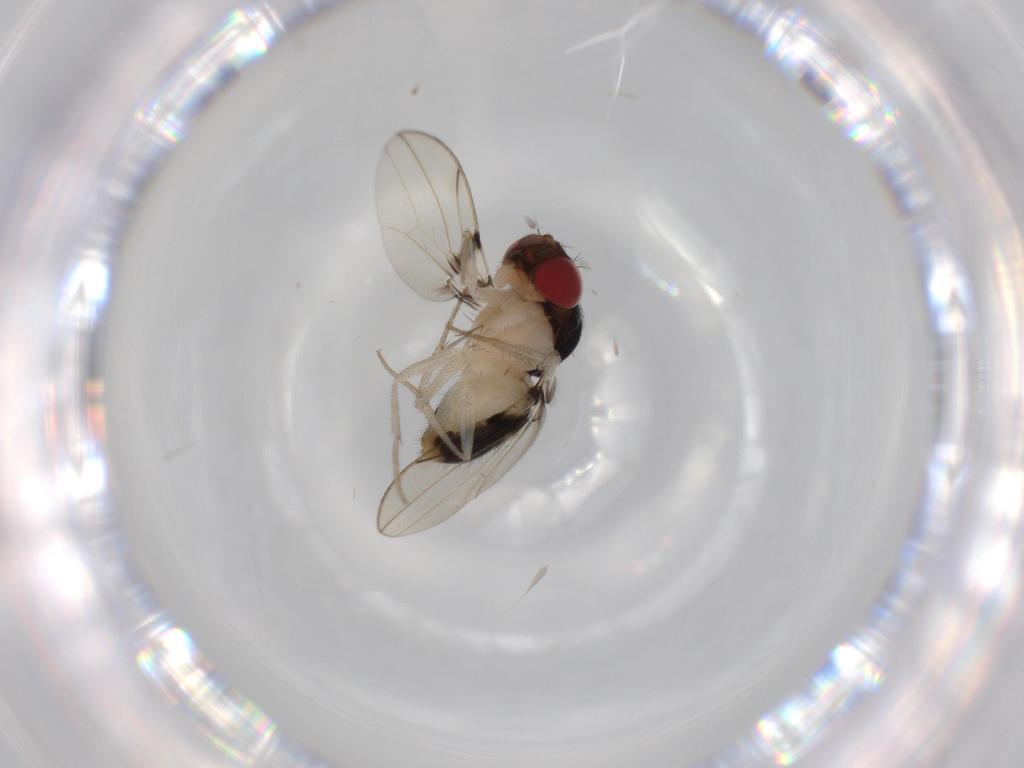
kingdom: Animalia
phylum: Arthropoda
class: Insecta
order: Diptera
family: Drosophilidae
